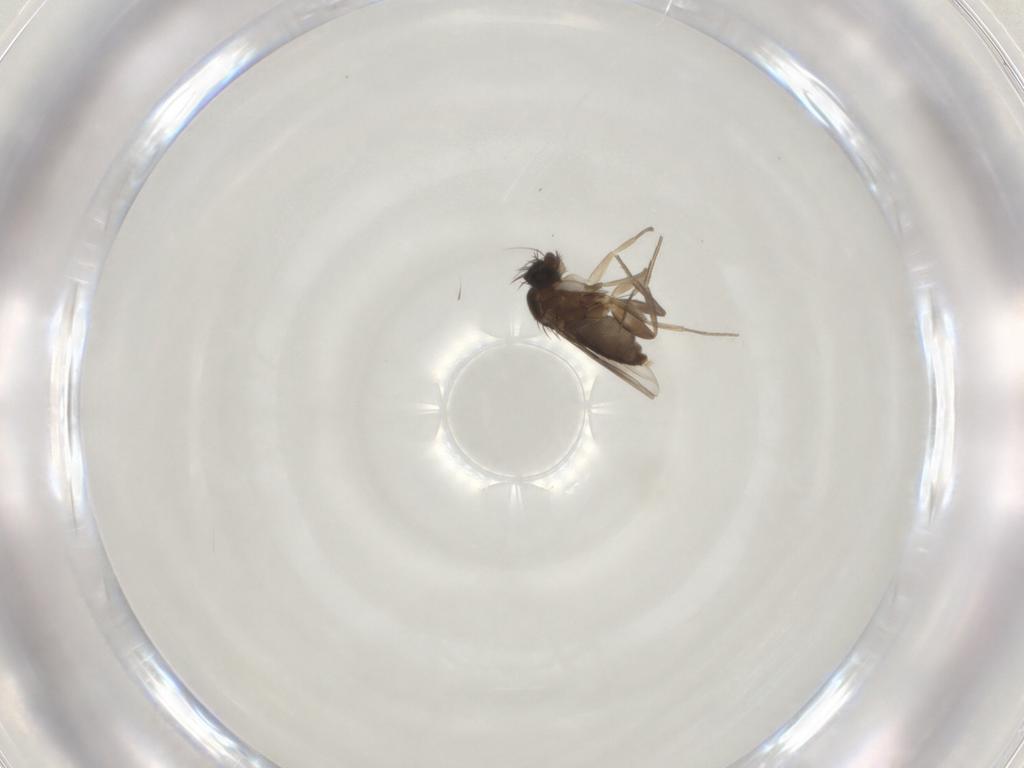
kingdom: Animalia
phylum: Arthropoda
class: Insecta
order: Diptera
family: Phoridae
